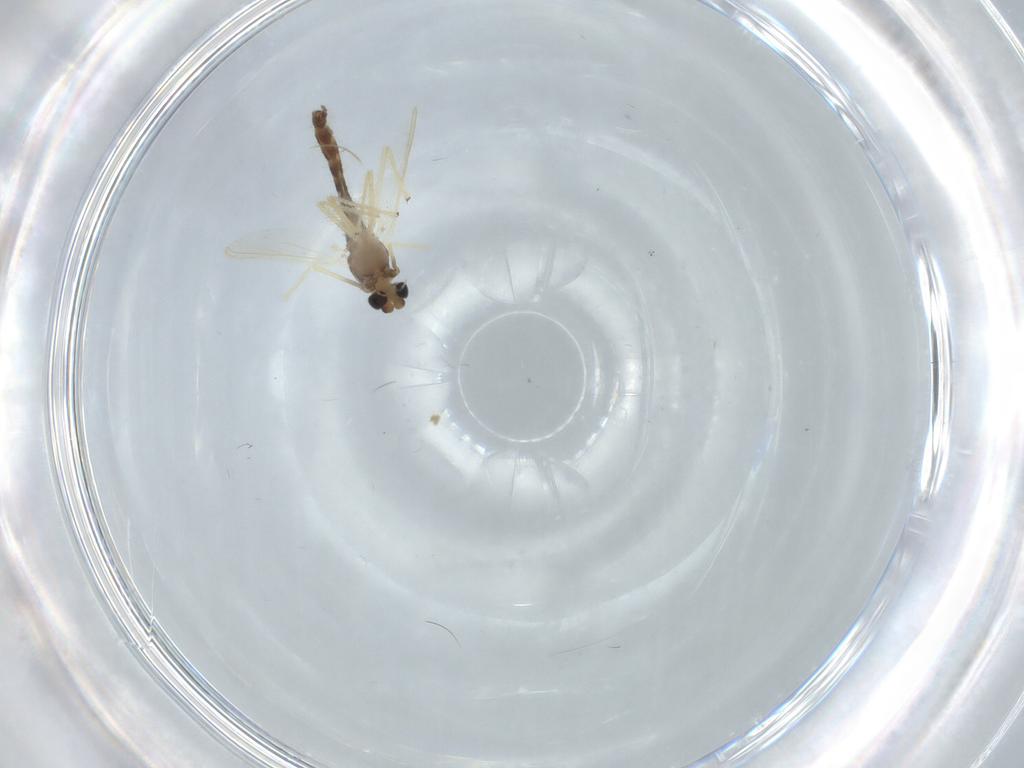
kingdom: Animalia
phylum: Arthropoda
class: Insecta
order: Diptera
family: Chironomidae
